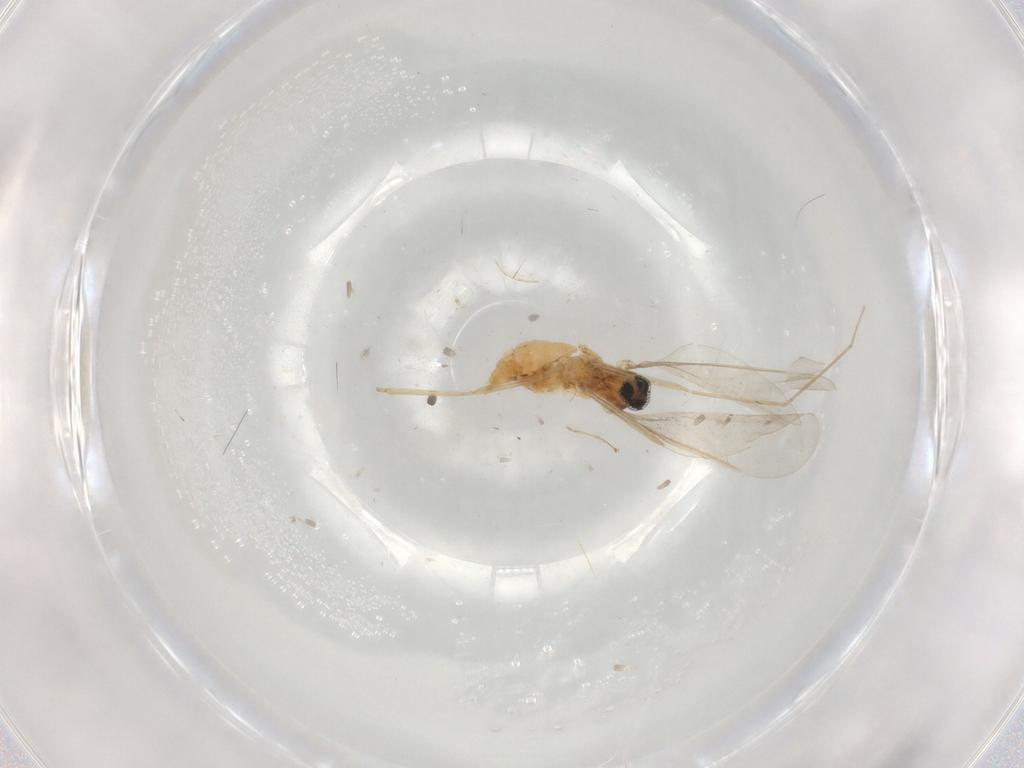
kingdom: Animalia
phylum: Arthropoda
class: Insecta
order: Diptera
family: Cecidomyiidae
